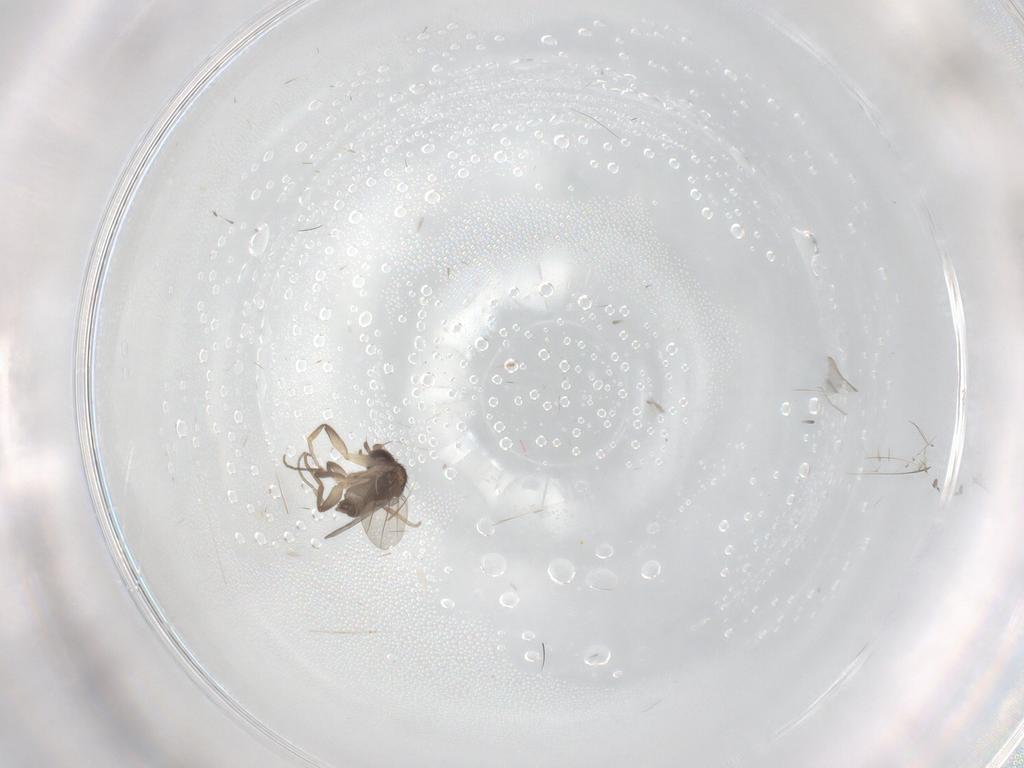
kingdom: Animalia
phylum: Arthropoda
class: Insecta
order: Diptera
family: Phoridae
